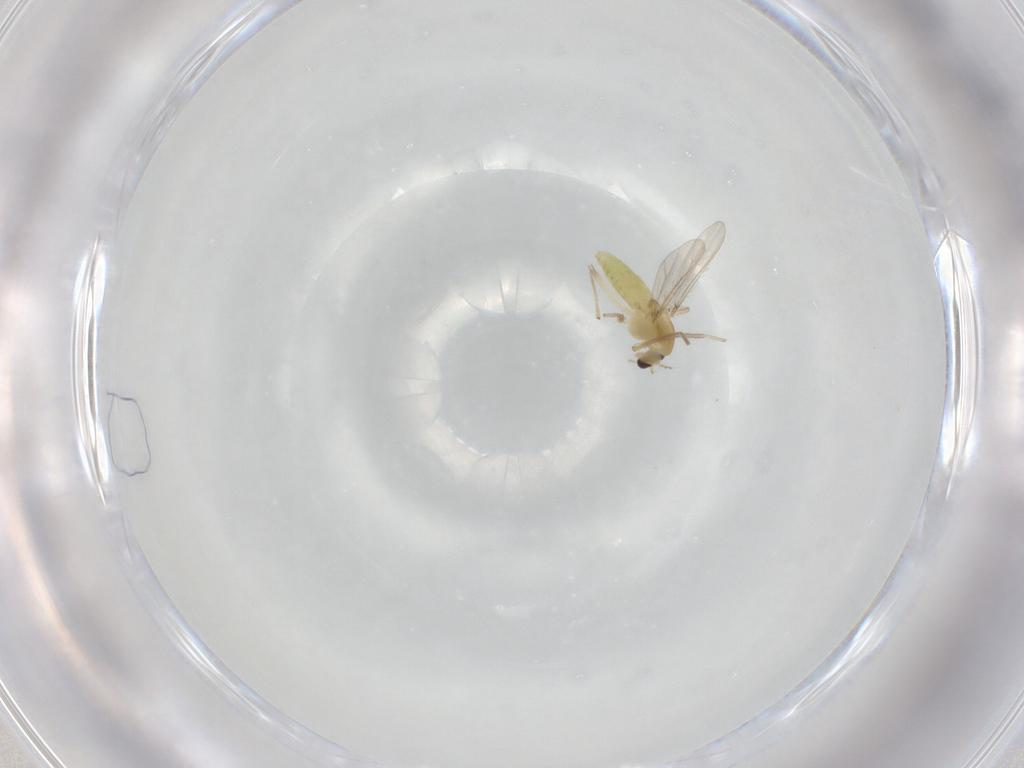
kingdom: Animalia
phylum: Arthropoda
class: Insecta
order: Diptera
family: Chironomidae
